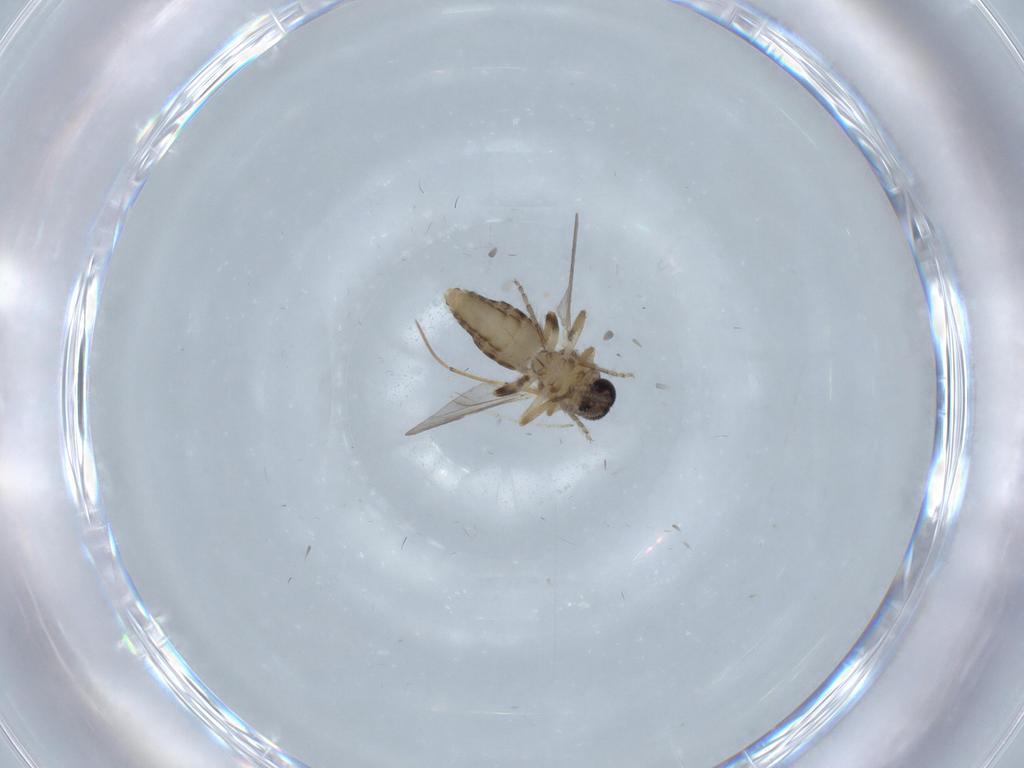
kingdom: Animalia
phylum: Arthropoda
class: Insecta
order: Diptera
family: Ceratopogonidae
